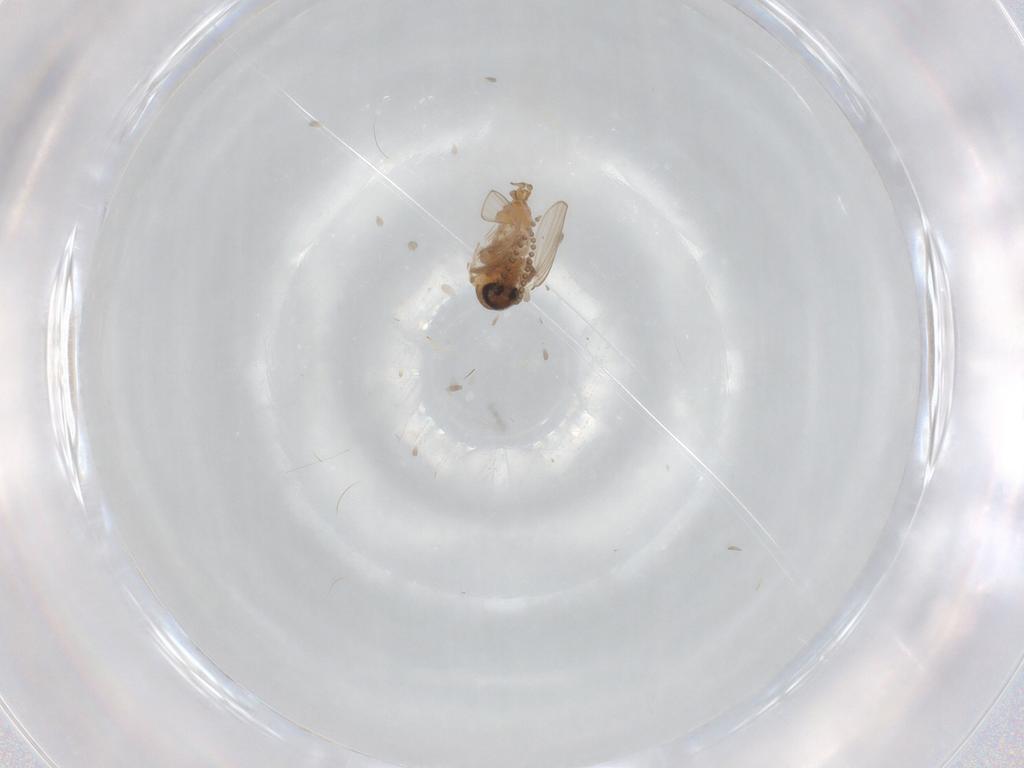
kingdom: Animalia
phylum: Arthropoda
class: Insecta
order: Diptera
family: Psychodidae
